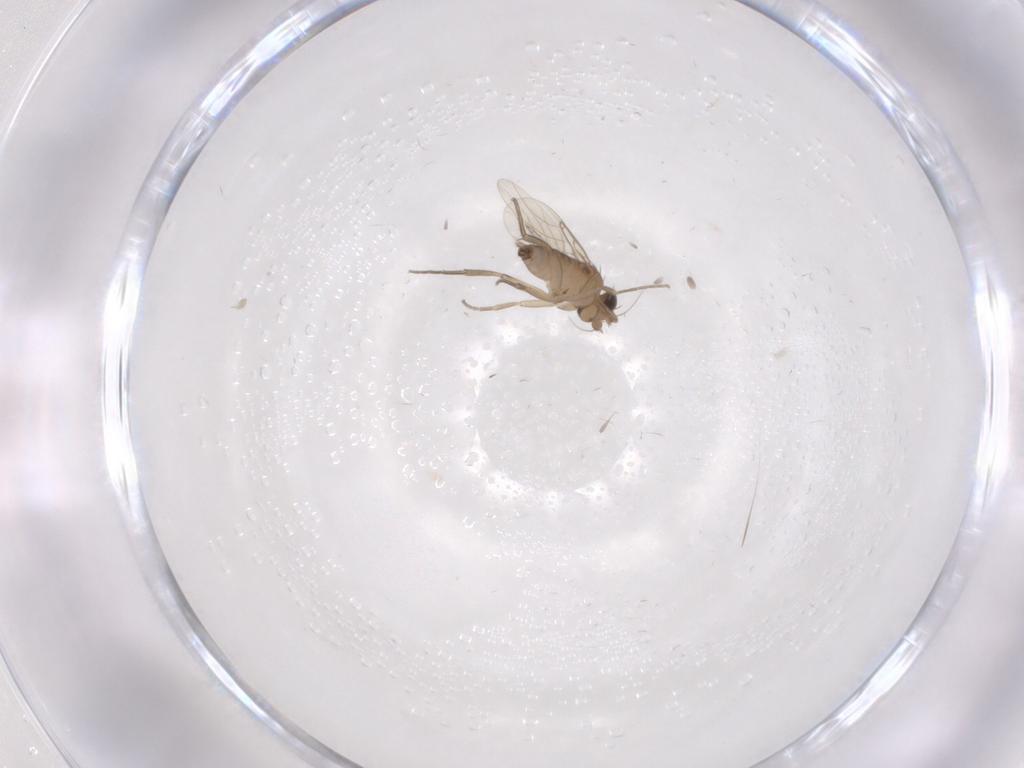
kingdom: Animalia
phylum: Arthropoda
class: Insecta
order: Diptera
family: Phoridae
